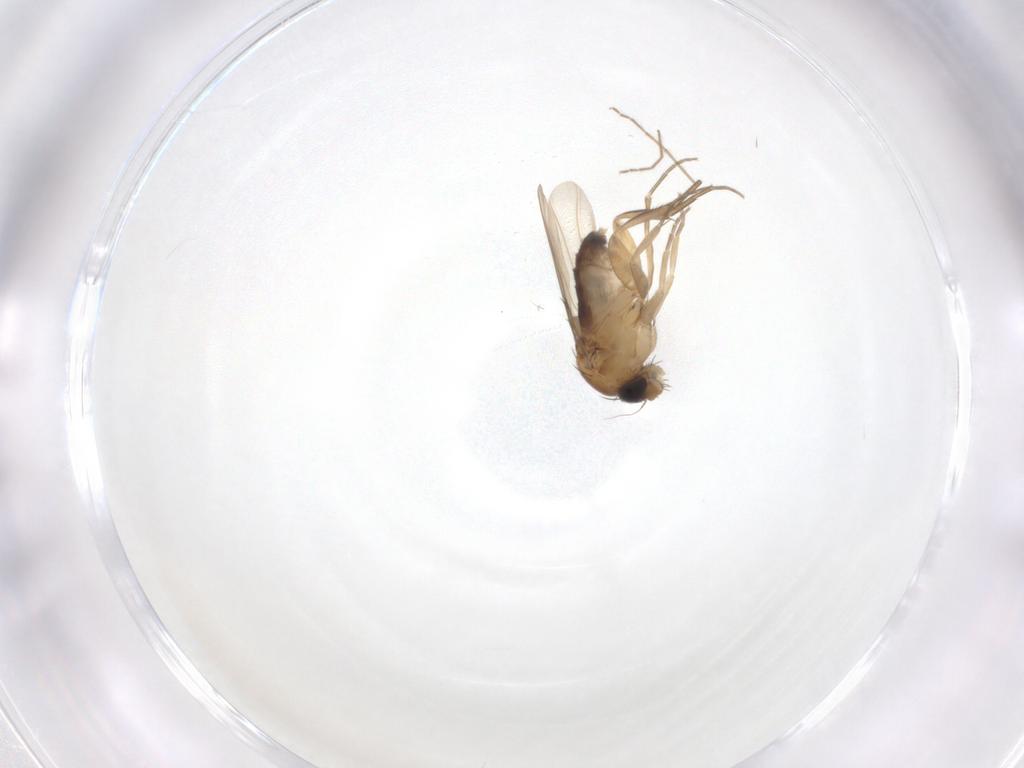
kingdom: Animalia
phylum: Arthropoda
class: Insecta
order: Diptera
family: Phoridae
